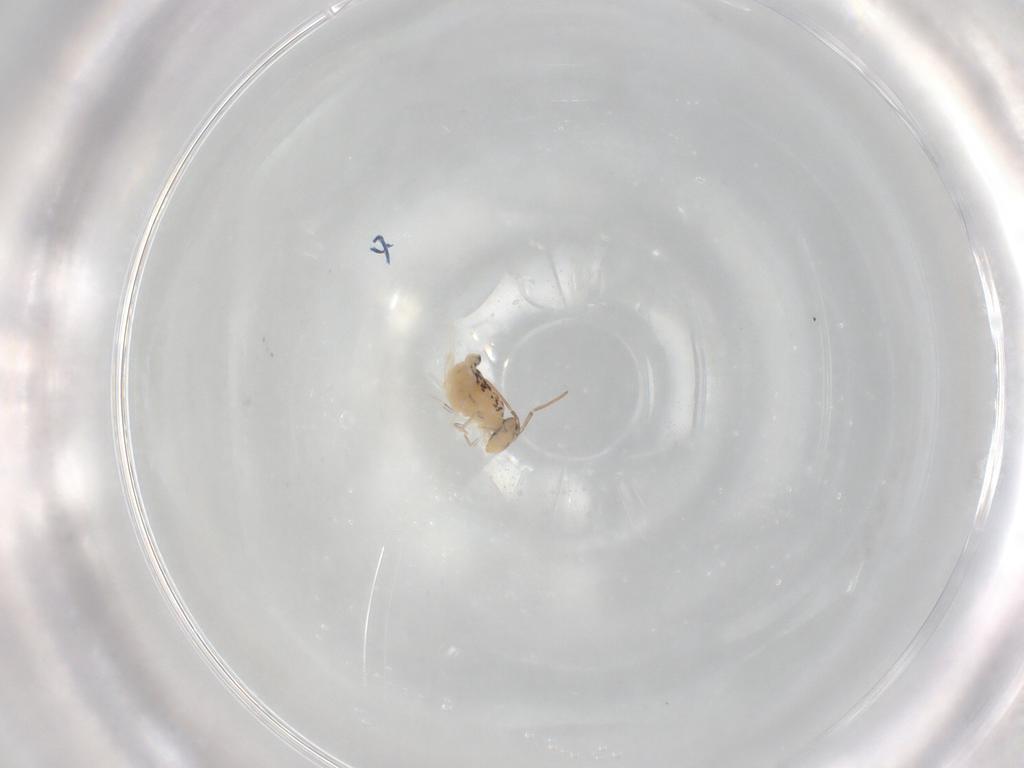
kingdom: Animalia
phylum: Arthropoda
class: Collembola
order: Symphypleona
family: Bourletiellidae
